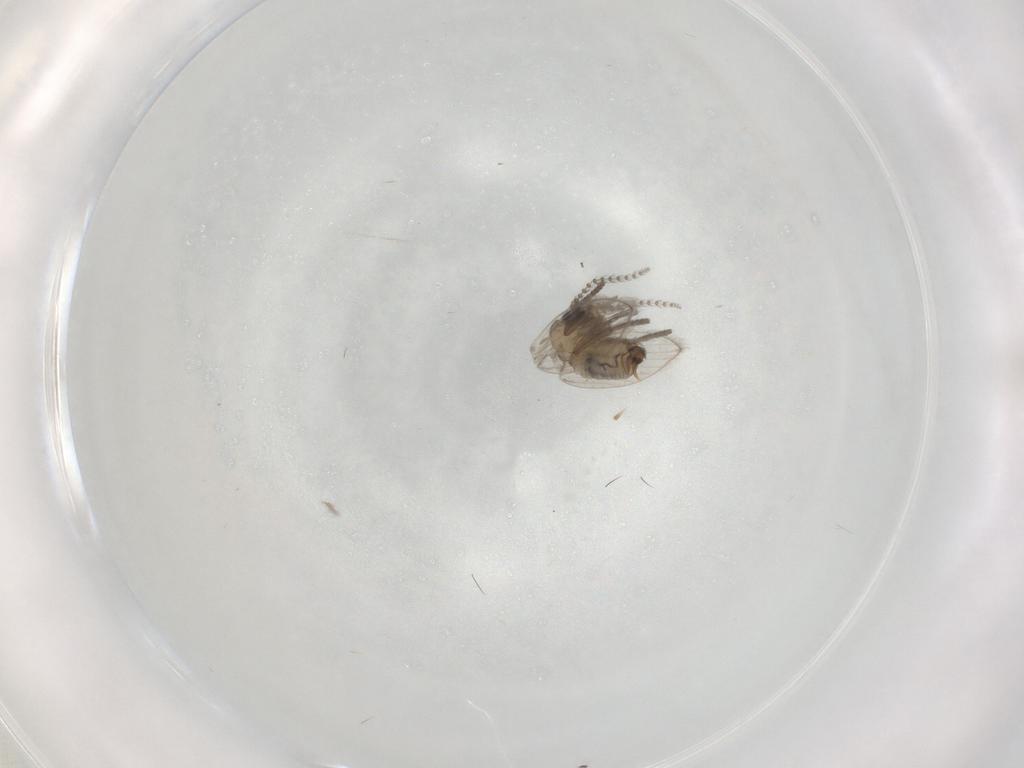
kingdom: Animalia
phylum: Arthropoda
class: Insecta
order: Diptera
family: Psychodidae
